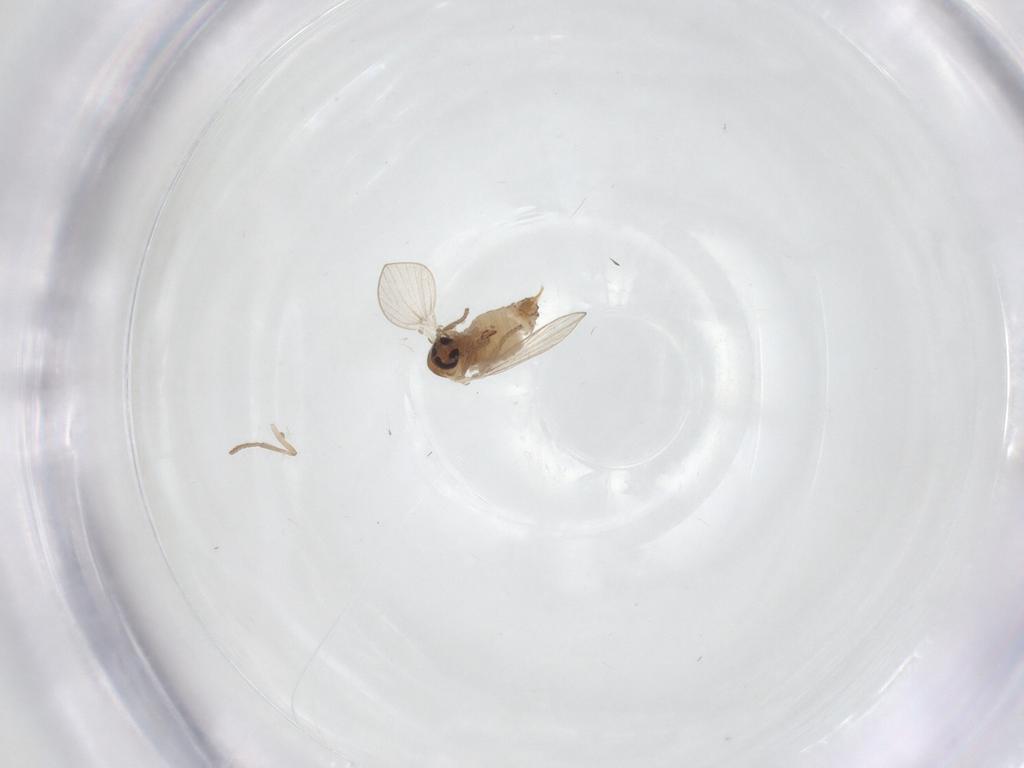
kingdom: Animalia
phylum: Arthropoda
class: Insecta
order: Diptera
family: Psychodidae
